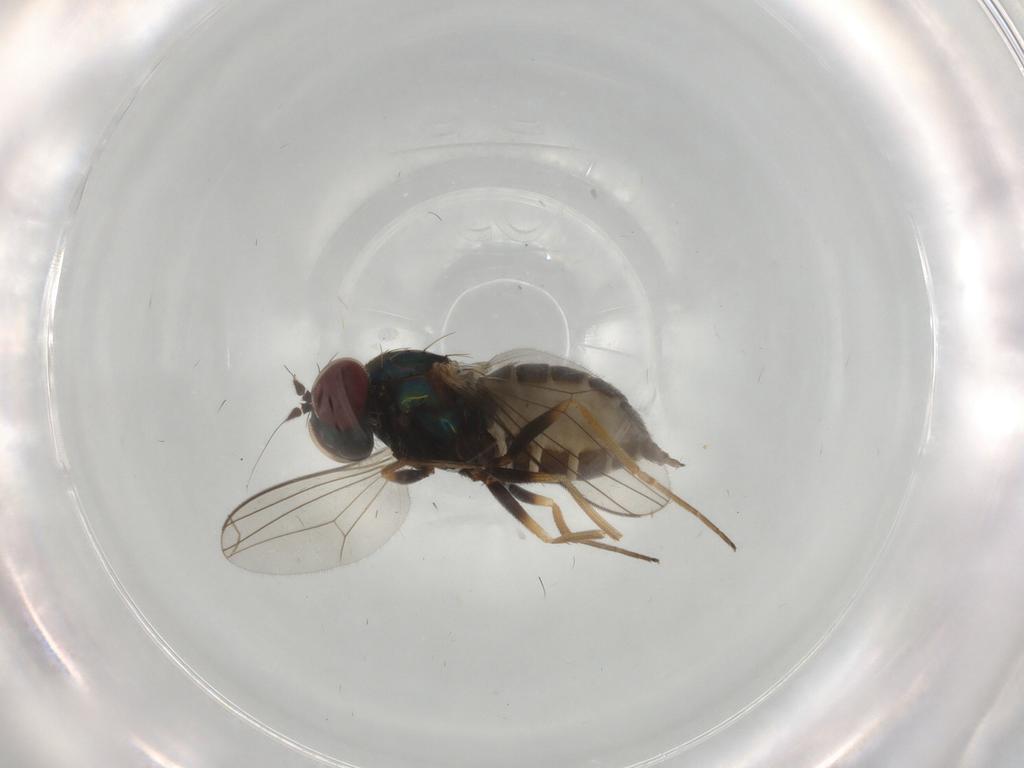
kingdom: Animalia
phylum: Arthropoda
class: Insecta
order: Diptera
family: Dolichopodidae
